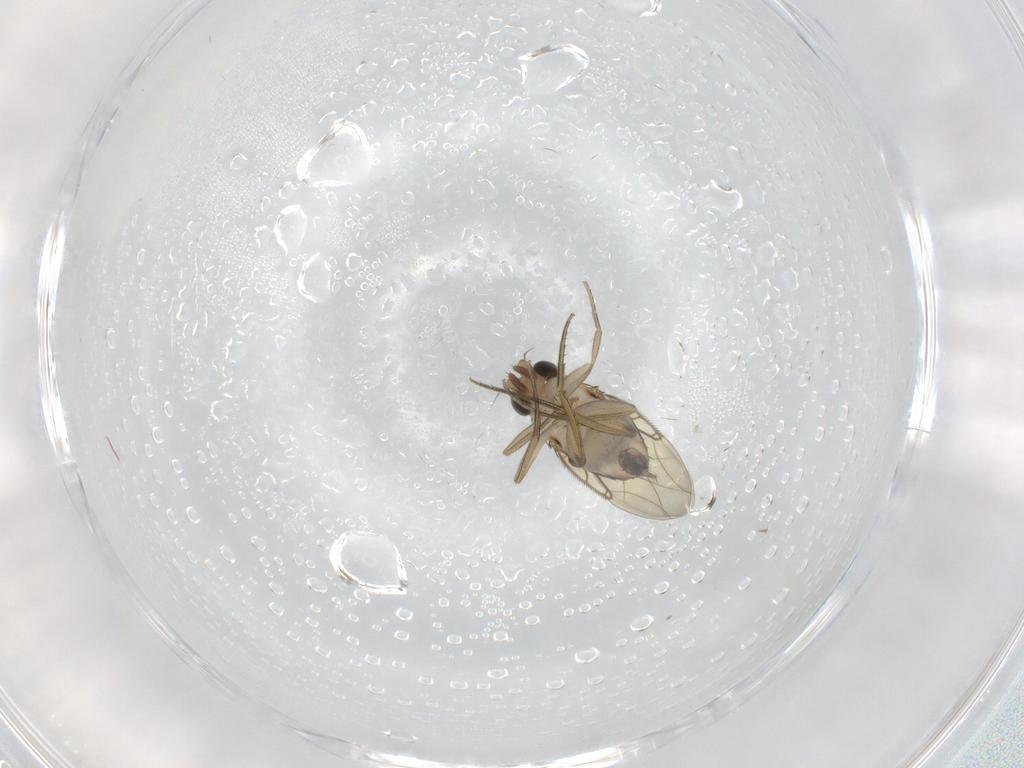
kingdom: Animalia
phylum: Arthropoda
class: Insecta
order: Diptera
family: Phoridae
